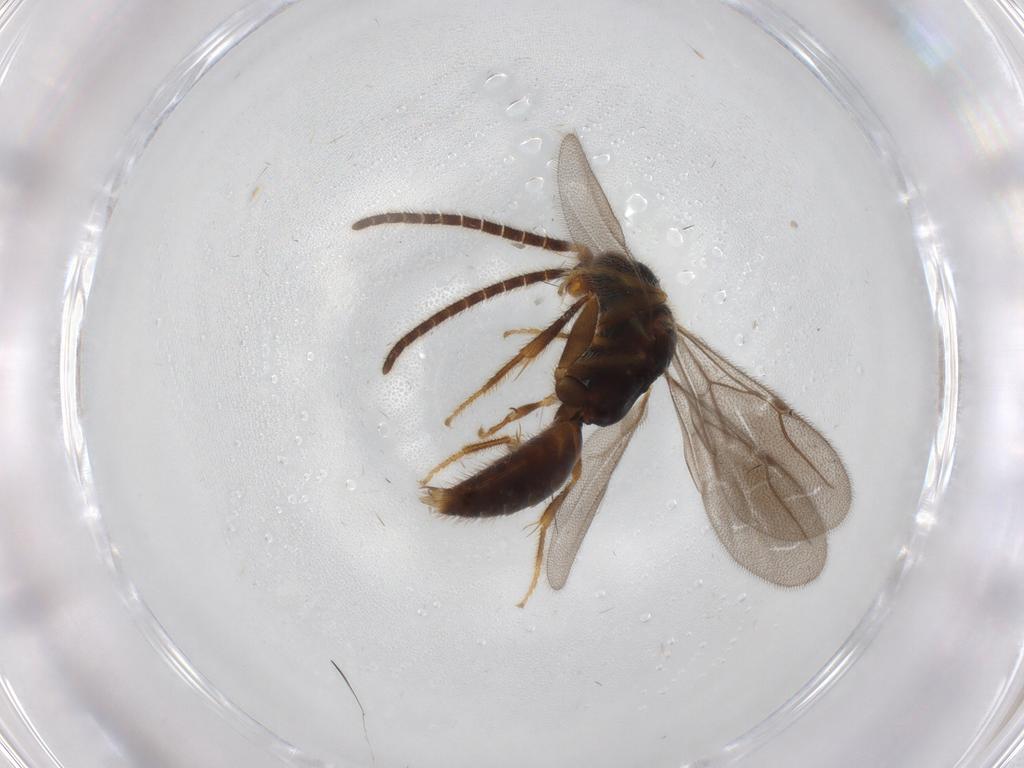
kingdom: Animalia
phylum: Arthropoda
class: Insecta
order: Hymenoptera
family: Bethylidae
